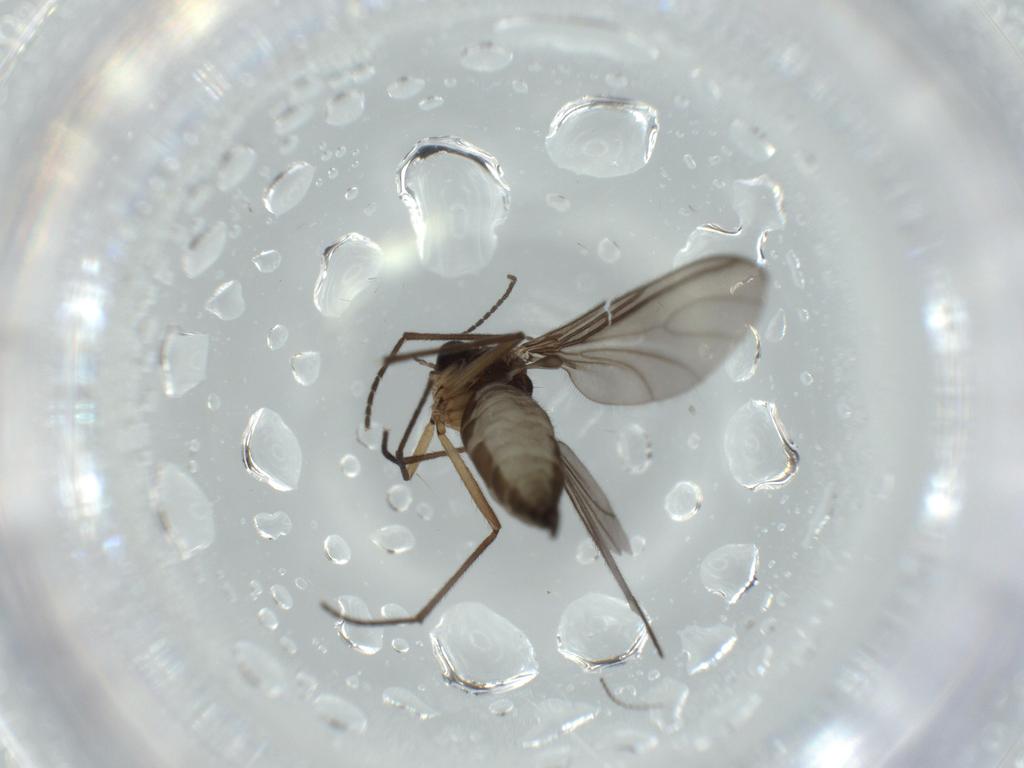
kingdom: Animalia
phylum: Arthropoda
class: Insecta
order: Diptera
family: Sciaridae
